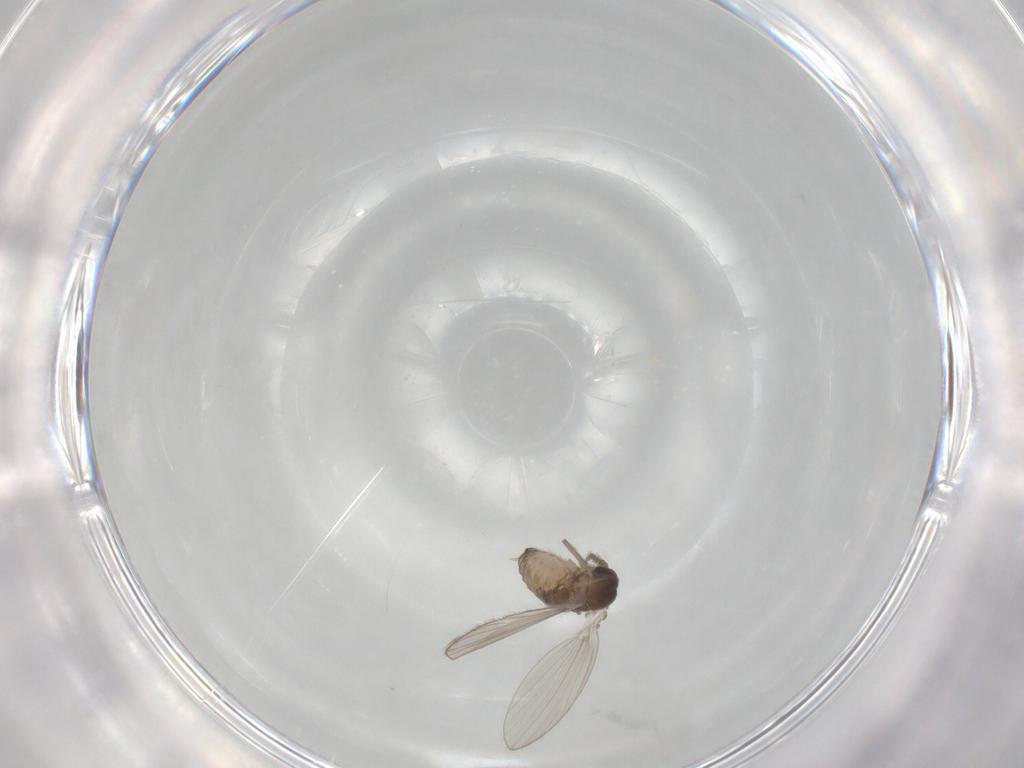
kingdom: Animalia
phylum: Arthropoda
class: Insecta
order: Diptera
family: Psychodidae
